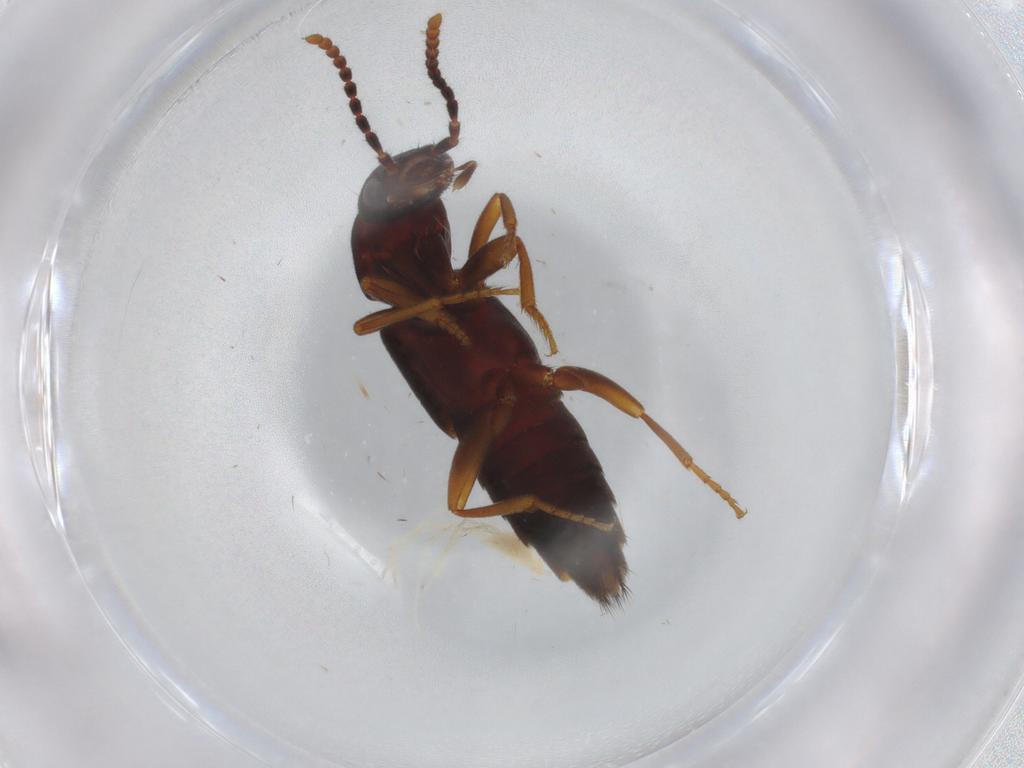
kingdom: Animalia
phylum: Arthropoda
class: Insecta
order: Coleoptera
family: Staphylinidae
